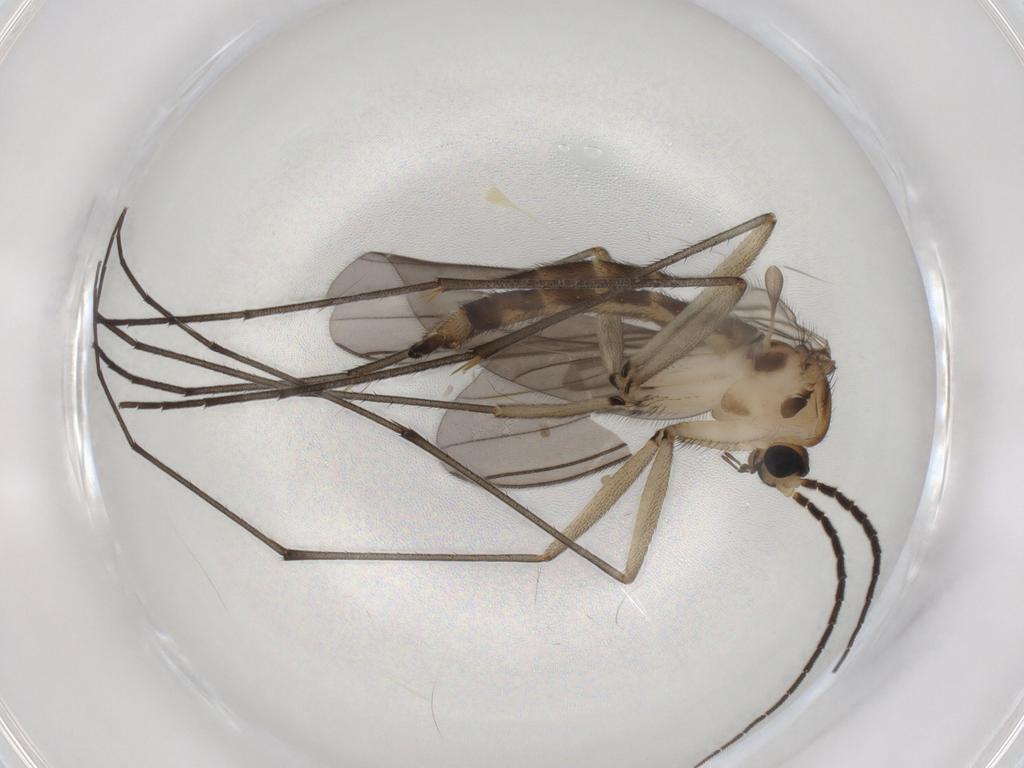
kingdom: Animalia
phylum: Arthropoda
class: Insecta
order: Diptera
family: Sciaridae
